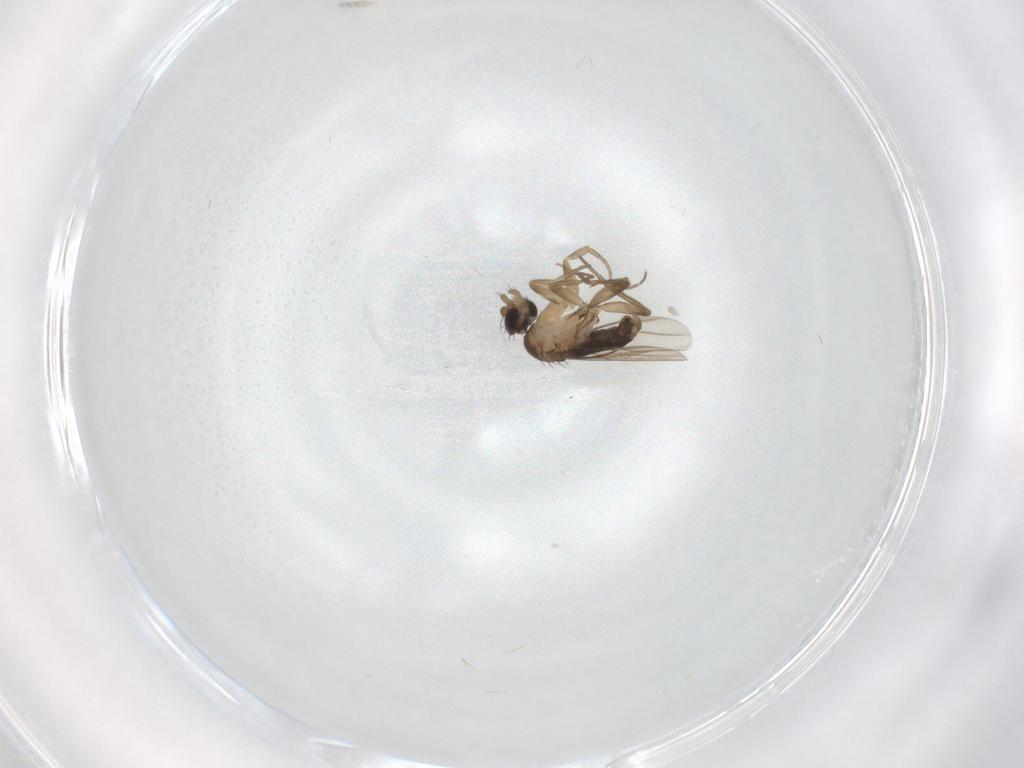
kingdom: Animalia
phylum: Arthropoda
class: Insecta
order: Diptera
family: Phoridae
